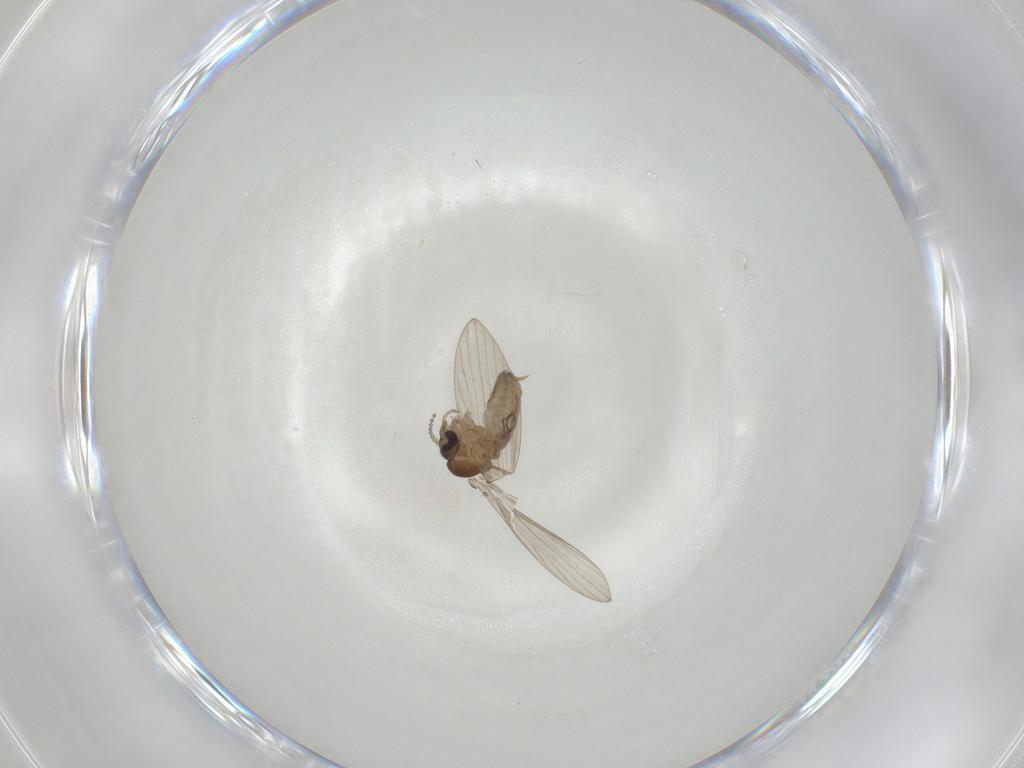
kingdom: Animalia
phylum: Arthropoda
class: Insecta
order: Diptera
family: Psychodidae
